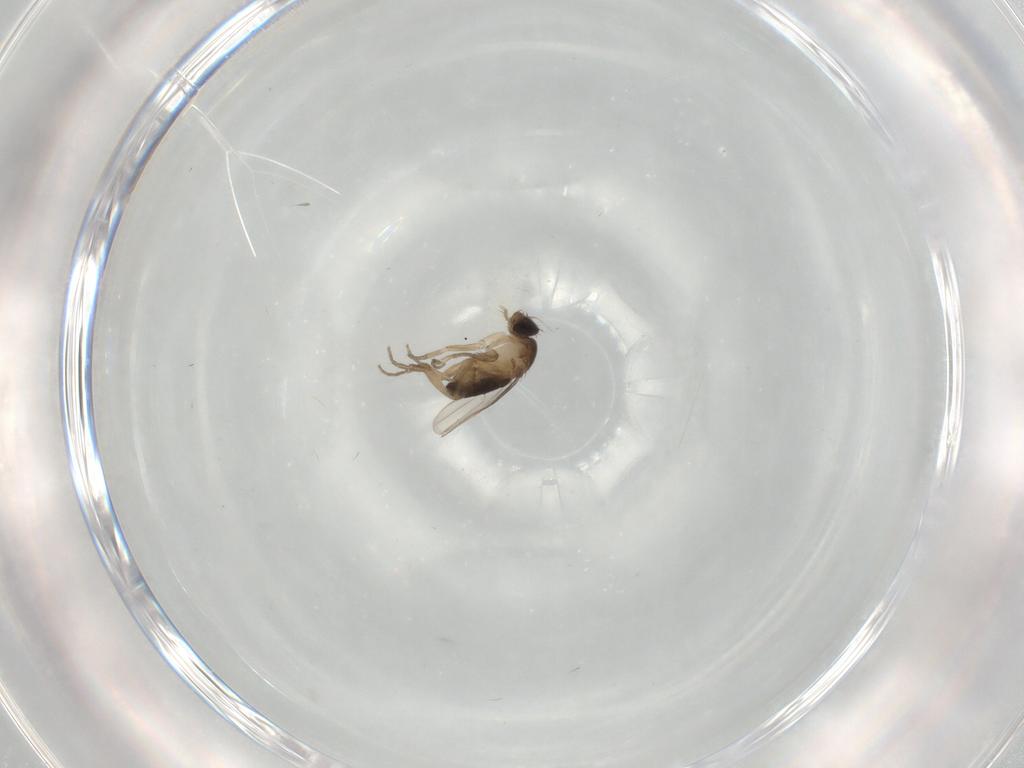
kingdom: Animalia
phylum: Arthropoda
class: Insecta
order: Diptera
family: Phoridae
